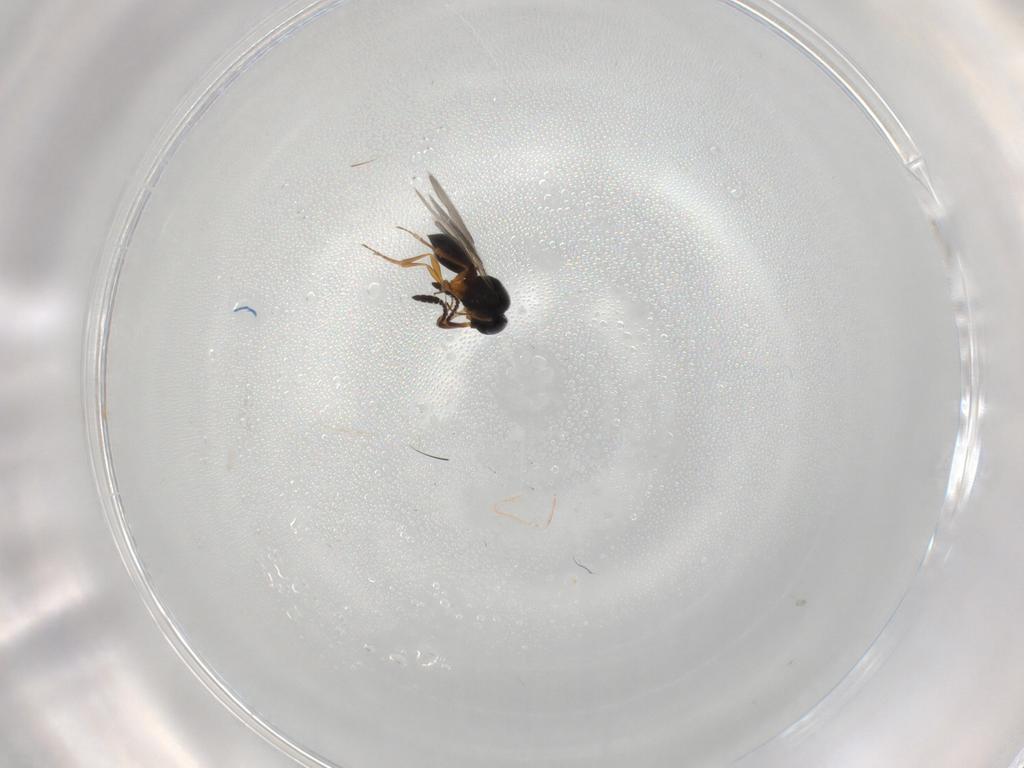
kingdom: Animalia
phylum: Arthropoda
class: Insecta
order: Hymenoptera
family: Scelionidae
